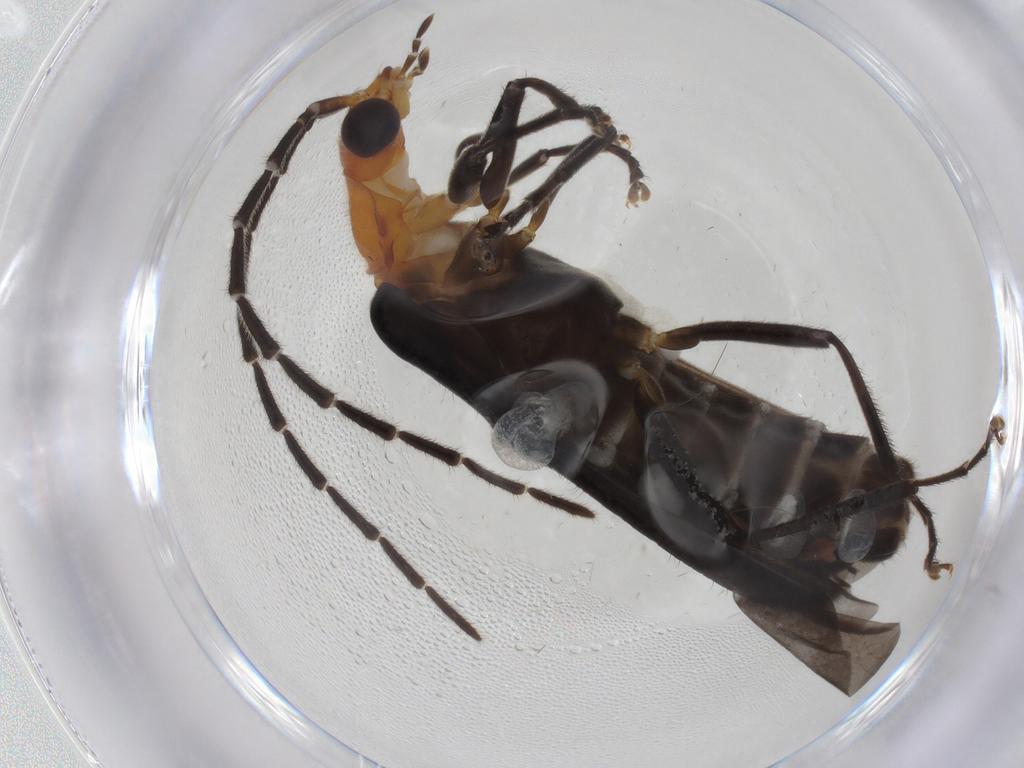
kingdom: Animalia
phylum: Arthropoda
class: Insecta
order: Coleoptera
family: Cantharidae
